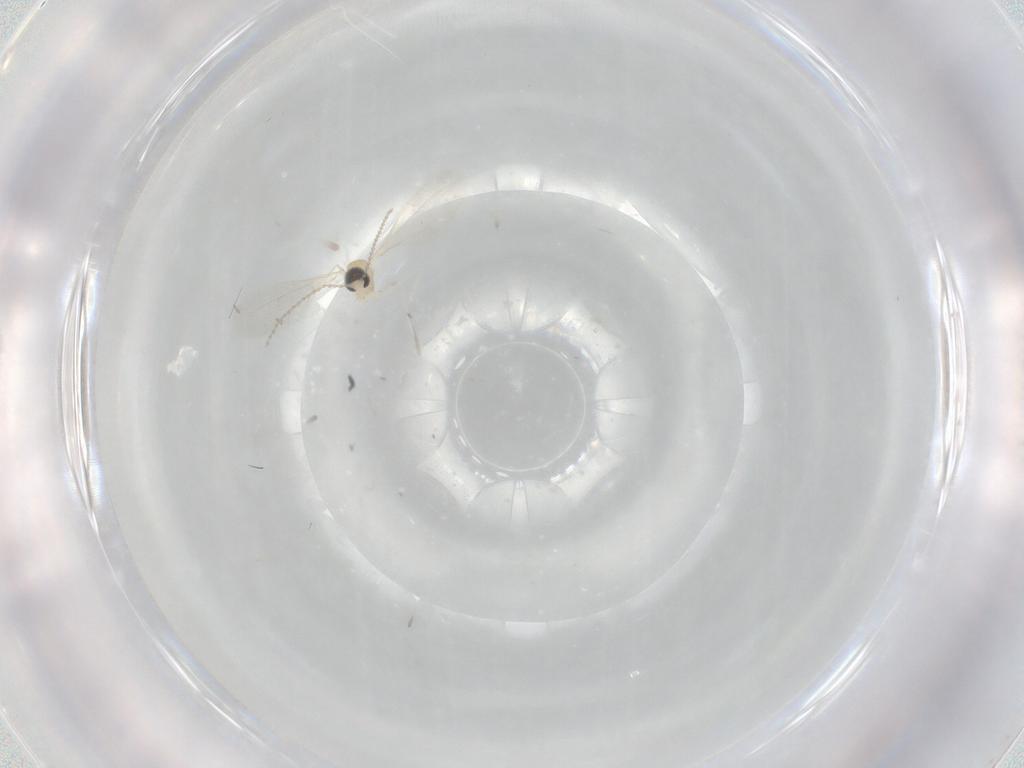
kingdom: Animalia
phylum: Arthropoda
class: Insecta
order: Diptera
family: Cecidomyiidae
